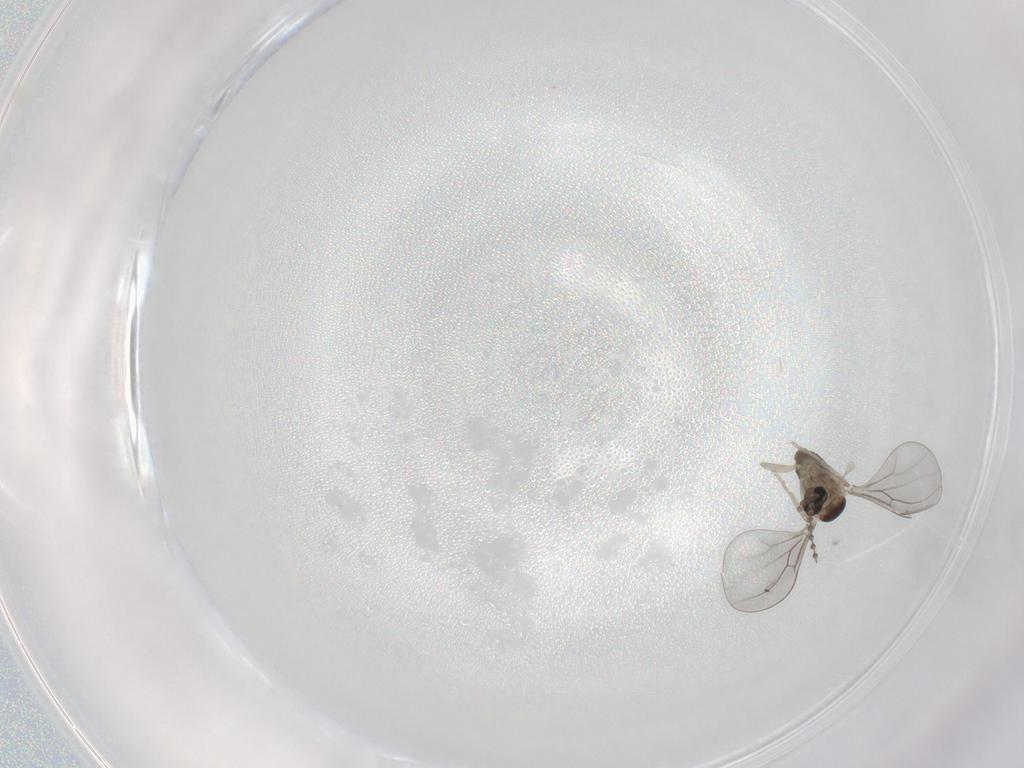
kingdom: Animalia
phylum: Arthropoda
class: Insecta
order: Diptera
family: Cecidomyiidae
